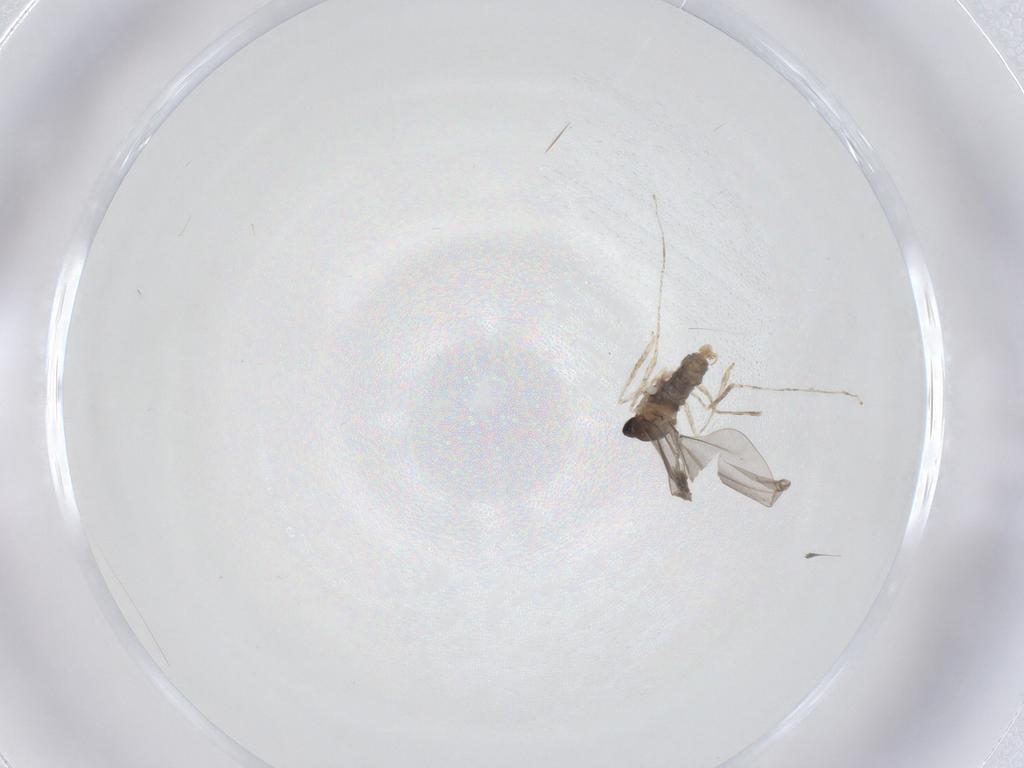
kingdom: Animalia
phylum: Arthropoda
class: Insecta
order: Diptera
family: Cecidomyiidae
